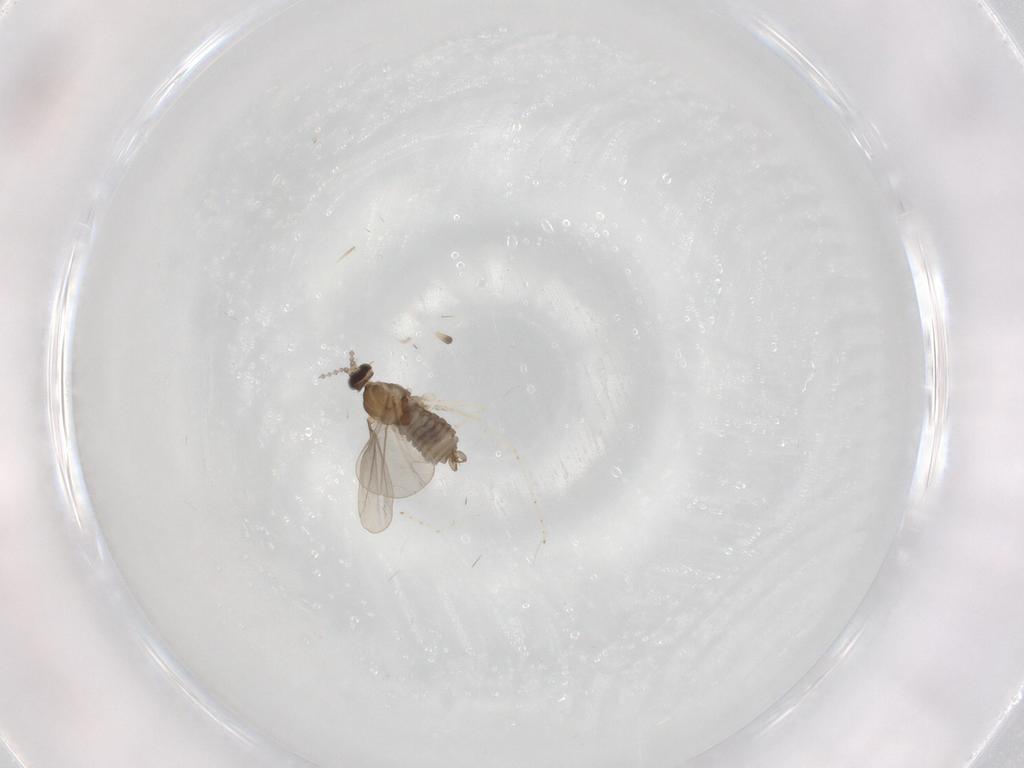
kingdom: Animalia
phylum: Arthropoda
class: Insecta
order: Diptera
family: Cecidomyiidae
